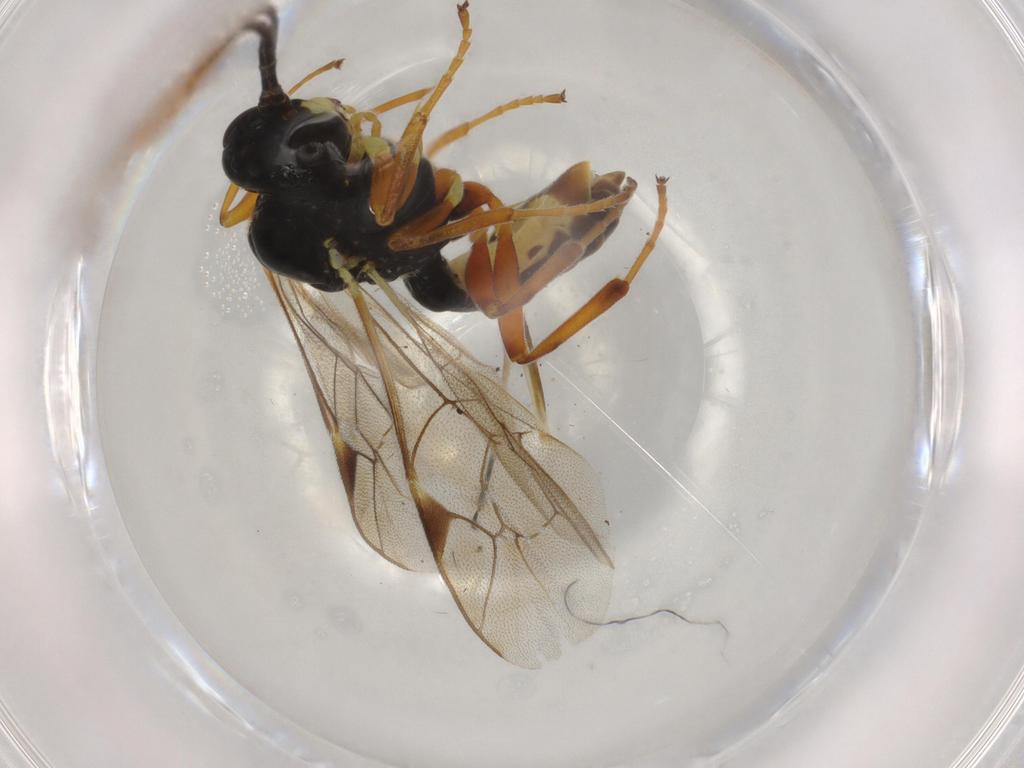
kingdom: Animalia
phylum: Arthropoda
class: Insecta
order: Hymenoptera
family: Ichneumonidae
